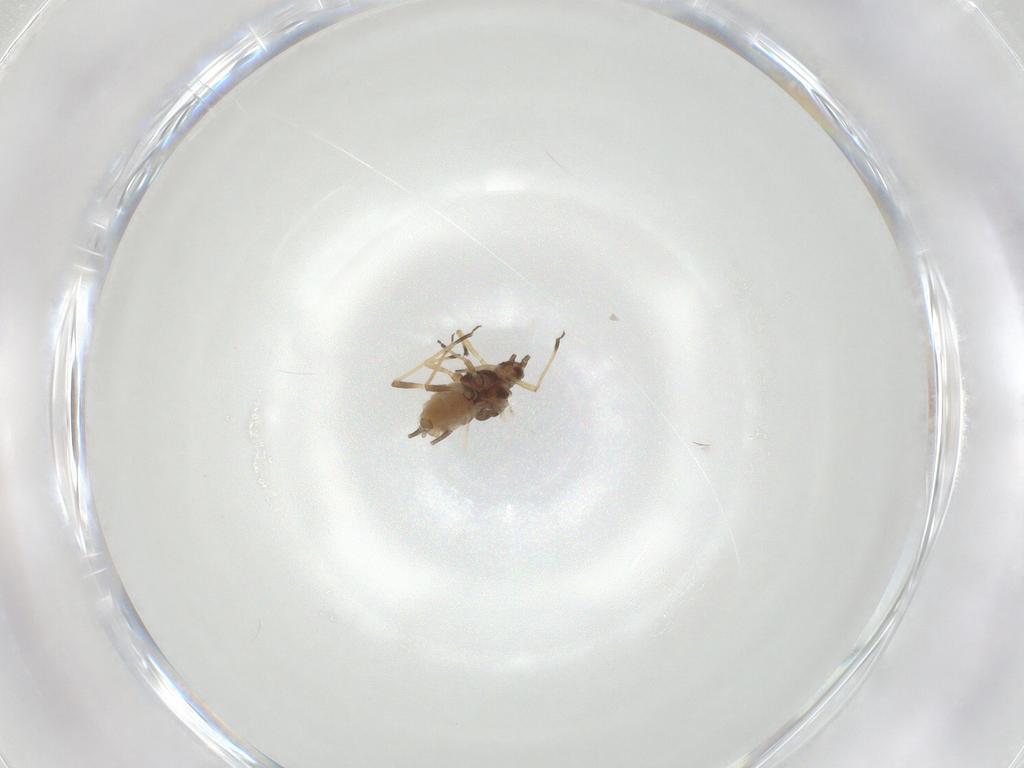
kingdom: Animalia
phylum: Arthropoda
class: Insecta
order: Hemiptera
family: Aphididae
